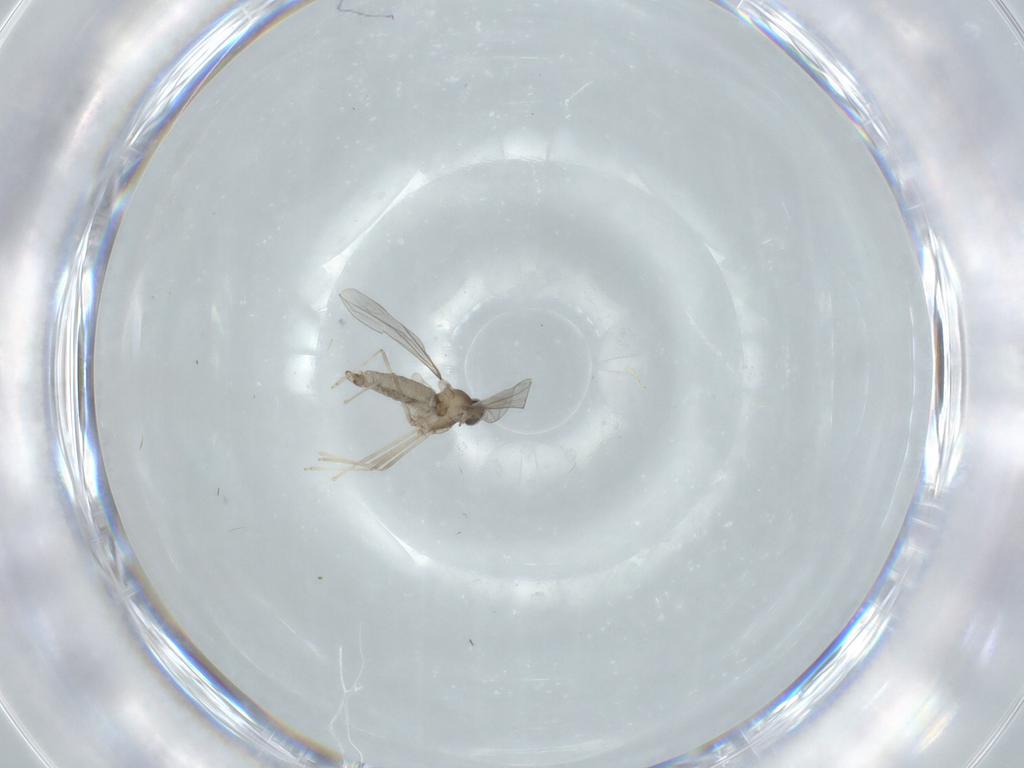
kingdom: Animalia
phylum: Arthropoda
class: Insecta
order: Diptera
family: Cecidomyiidae
